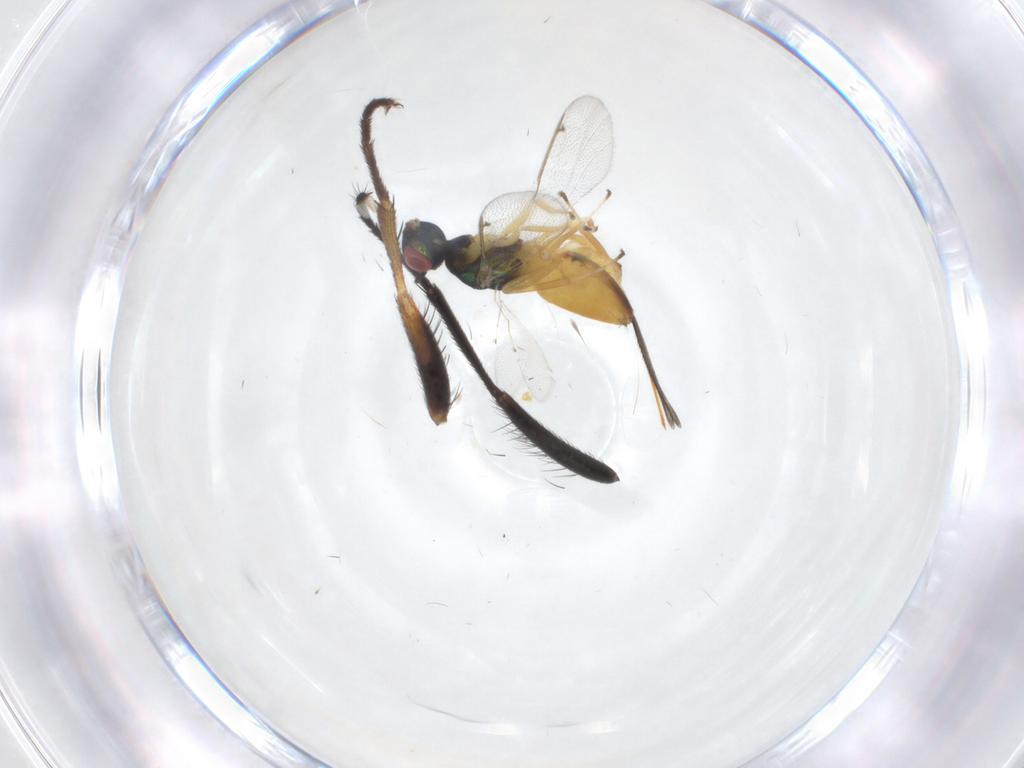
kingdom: Animalia
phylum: Arthropoda
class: Insecta
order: Hymenoptera
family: Torymidae
